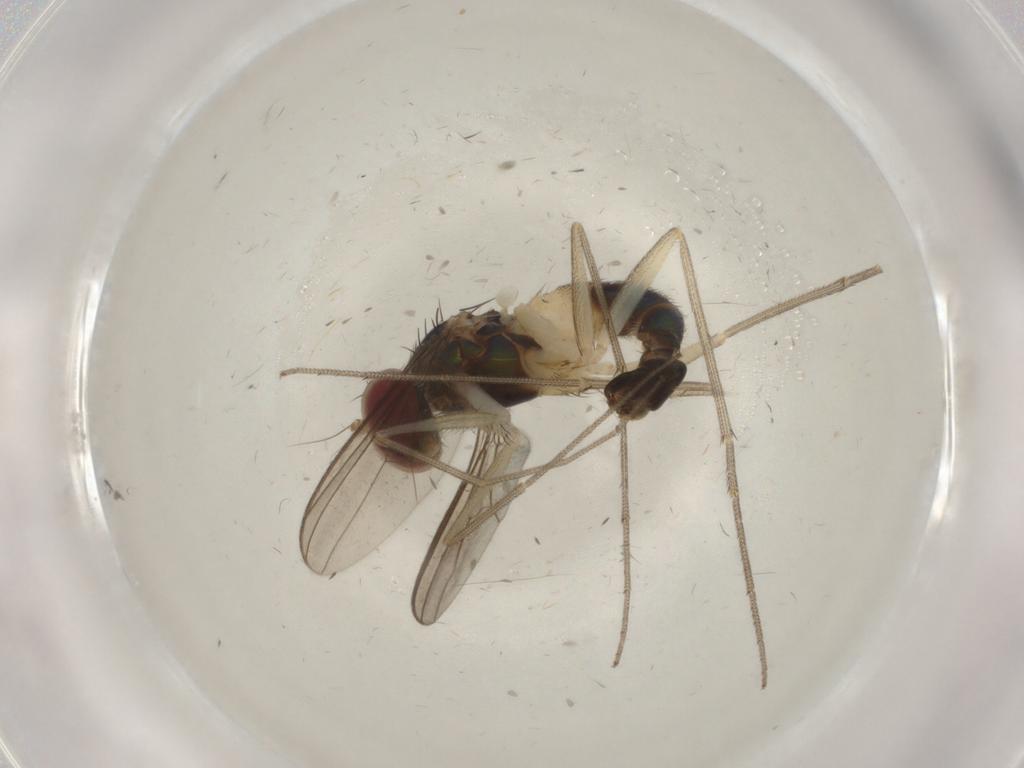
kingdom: Animalia
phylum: Arthropoda
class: Insecta
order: Diptera
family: Dolichopodidae
